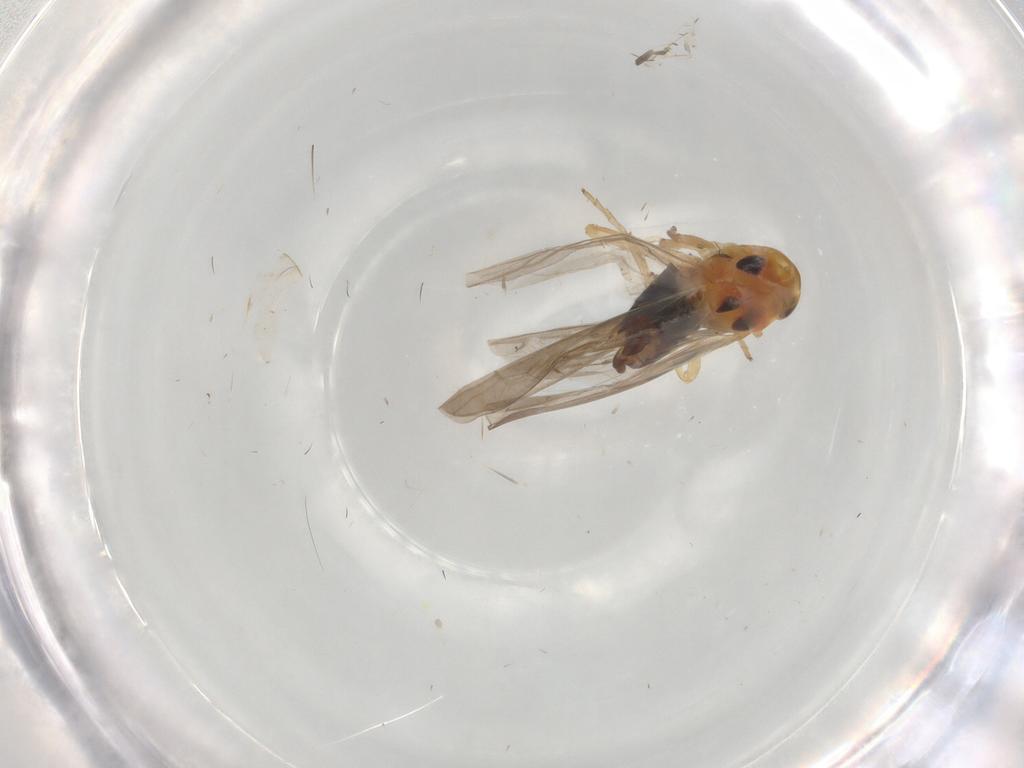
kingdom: Animalia
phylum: Arthropoda
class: Insecta
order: Hemiptera
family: Cicadellidae
